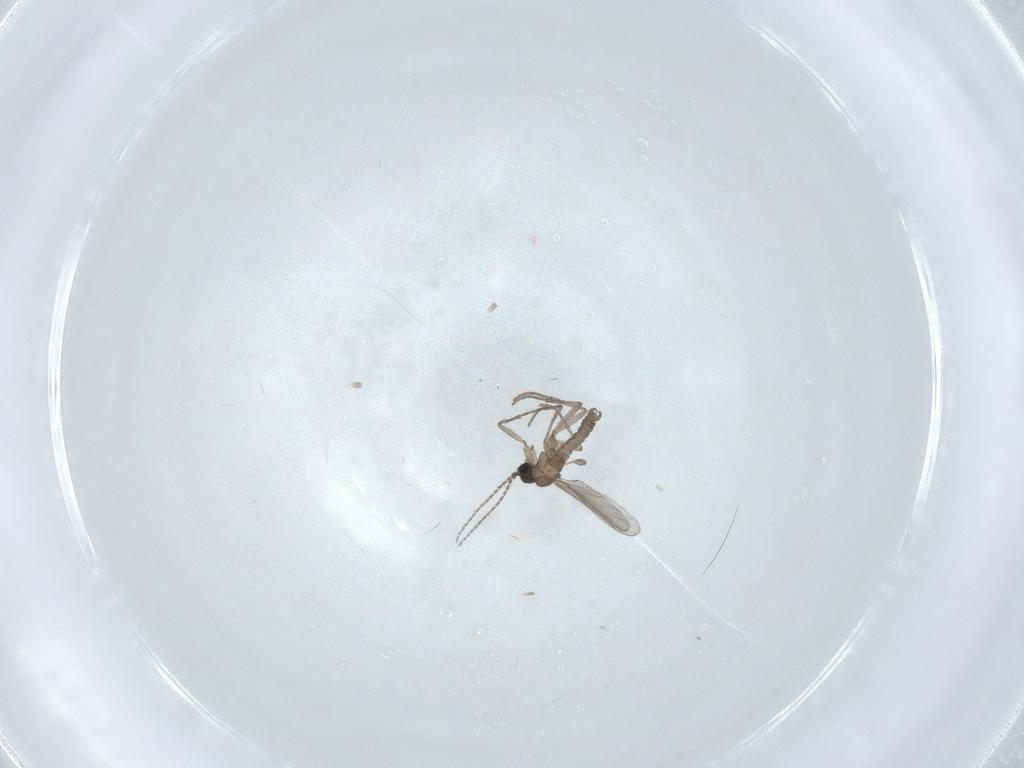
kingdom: Animalia
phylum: Arthropoda
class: Insecta
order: Diptera
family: Sciaridae
